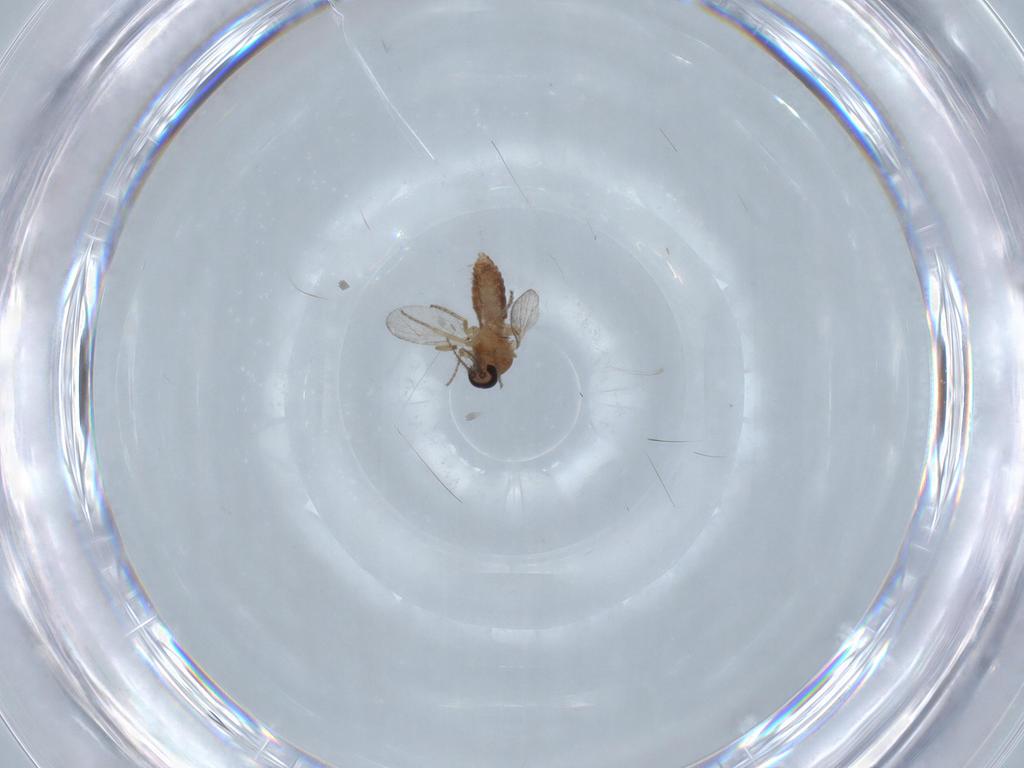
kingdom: Animalia
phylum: Arthropoda
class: Insecta
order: Diptera
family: Ceratopogonidae
